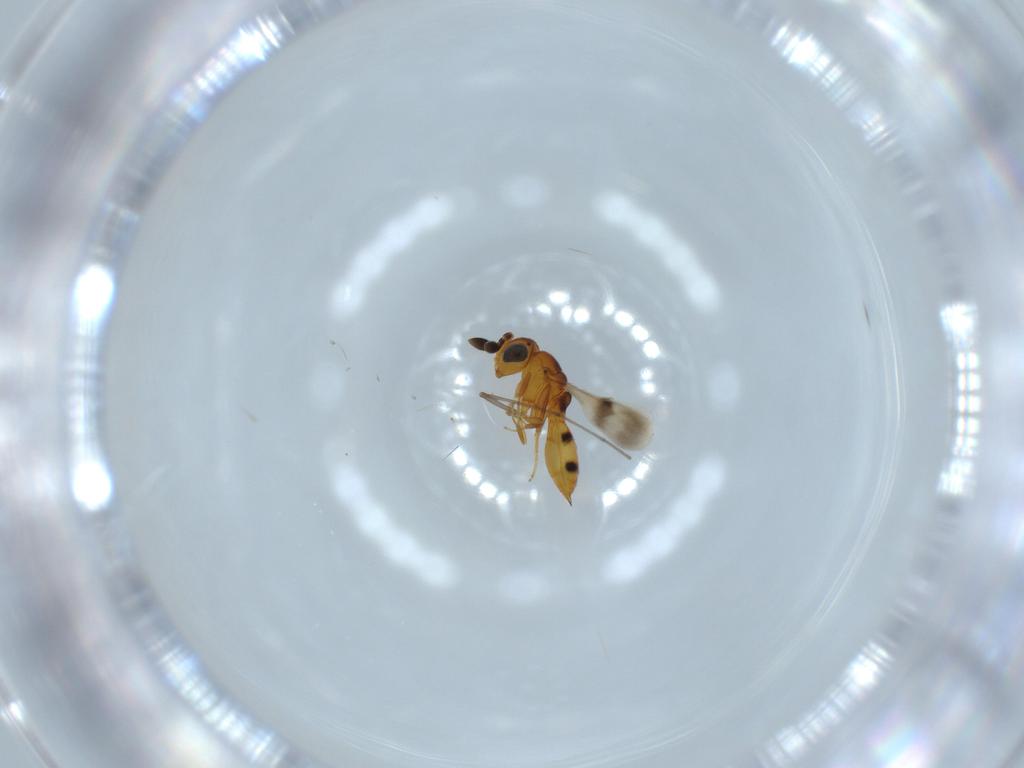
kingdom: Animalia
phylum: Arthropoda
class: Insecta
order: Hymenoptera
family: Scelionidae
